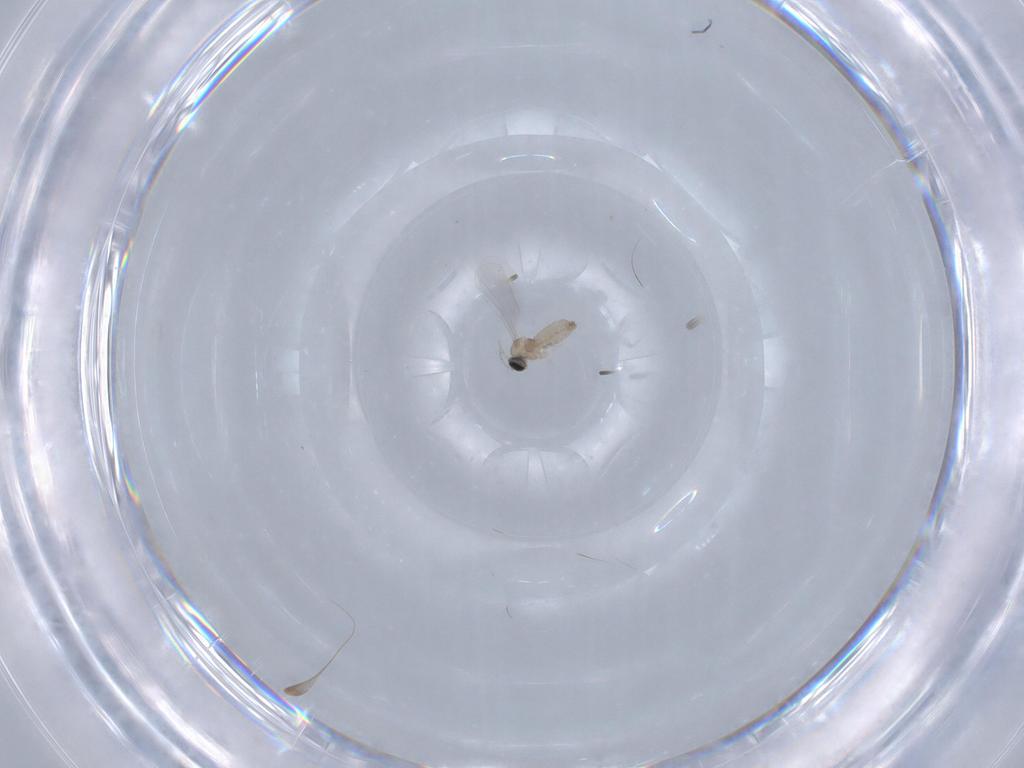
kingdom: Animalia
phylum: Arthropoda
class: Insecta
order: Diptera
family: Cecidomyiidae
